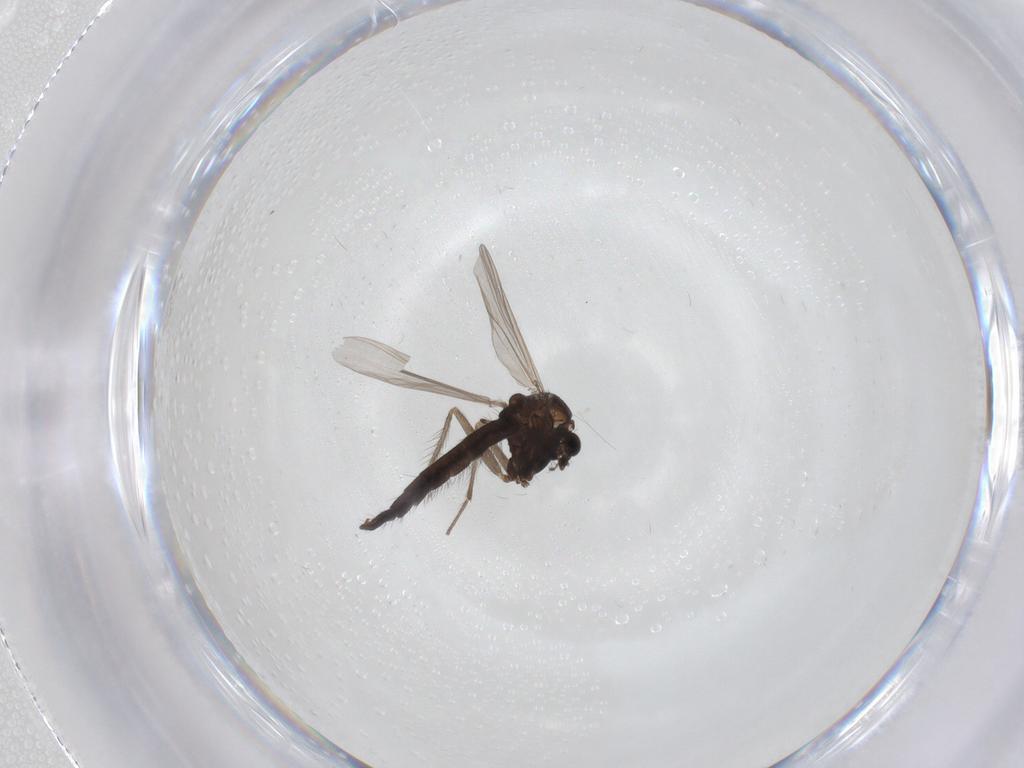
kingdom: Animalia
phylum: Arthropoda
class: Insecta
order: Diptera
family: Chironomidae
